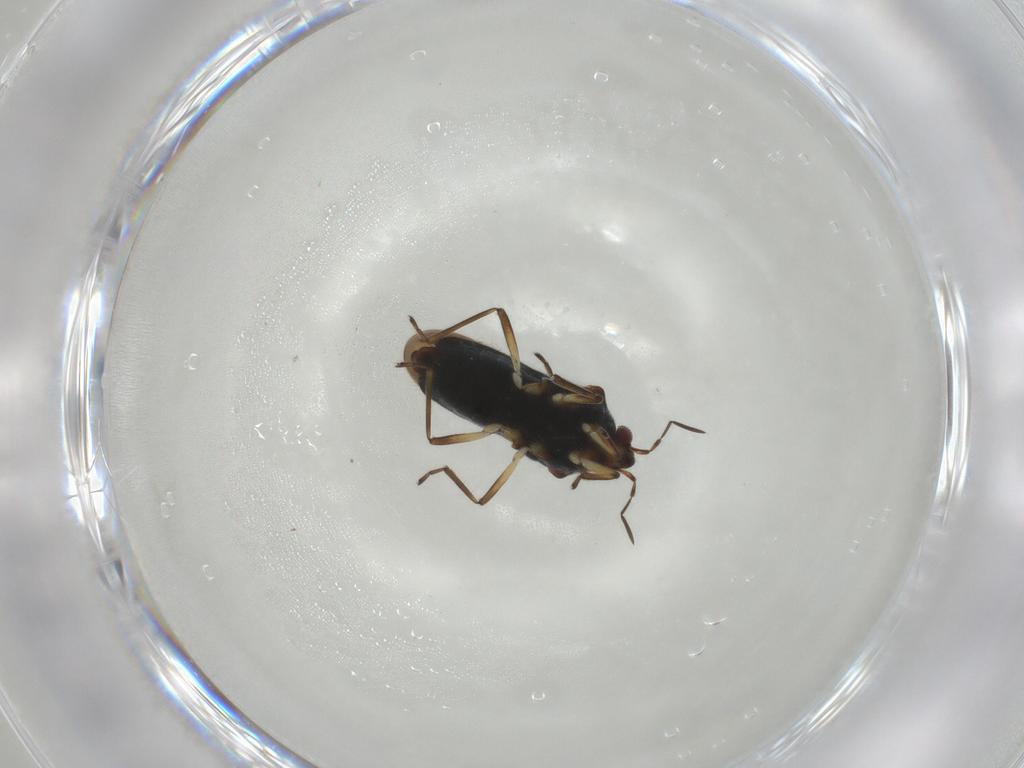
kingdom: Animalia
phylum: Arthropoda
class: Insecta
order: Hemiptera
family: Veliidae
